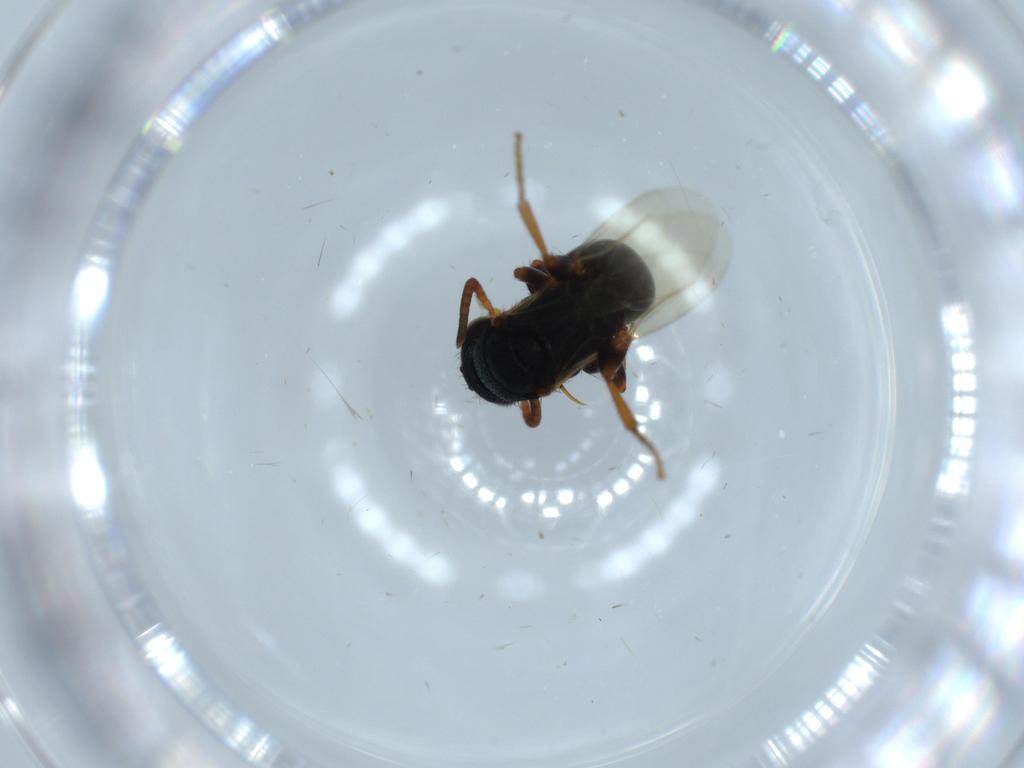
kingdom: Animalia
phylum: Arthropoda
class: Insecta
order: Hymenoptera
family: Bethylidae
